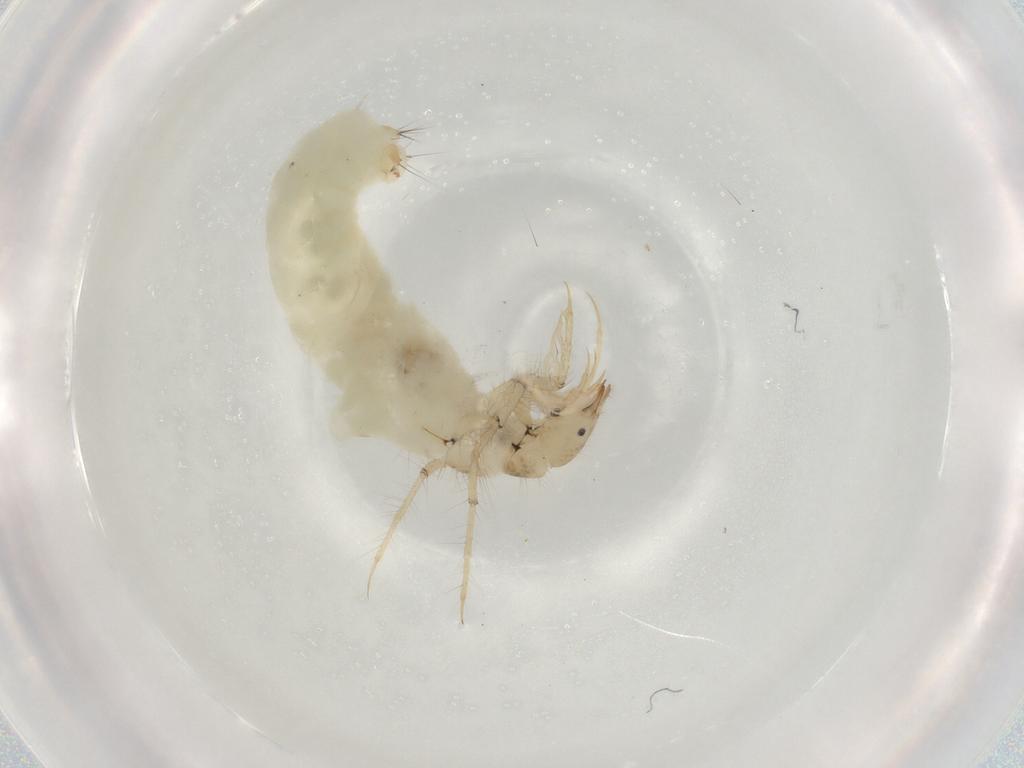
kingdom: Animalia
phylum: Arthropoda
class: Insecta
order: Trichoptera
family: Leptoceridae
